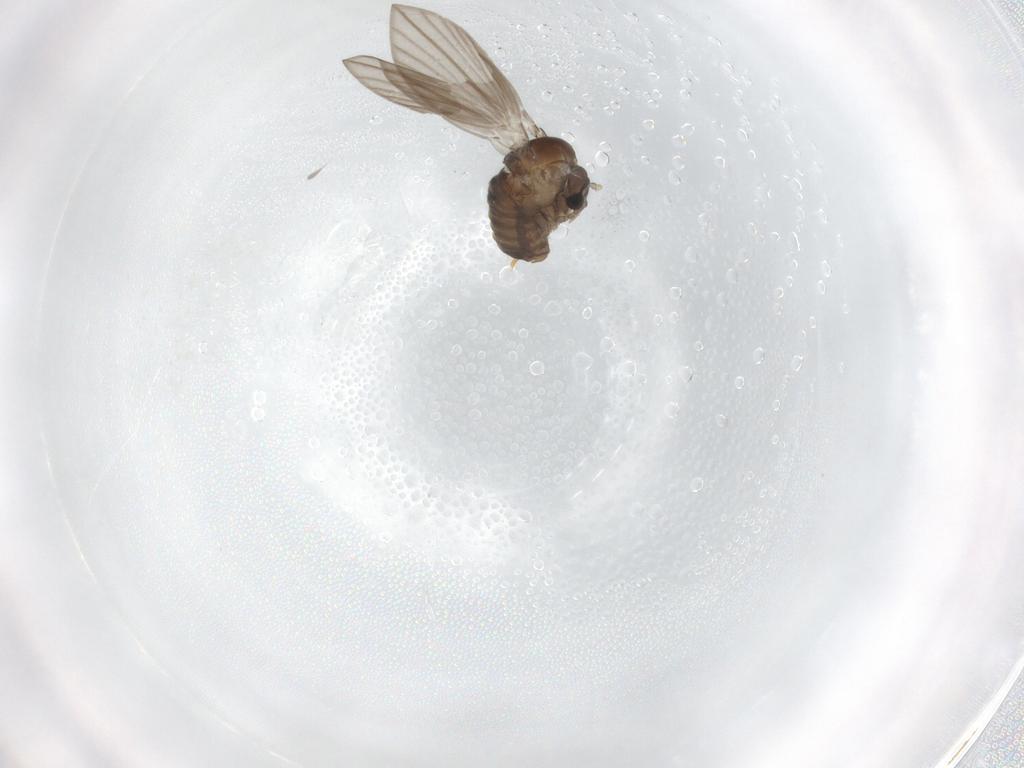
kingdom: Animalia
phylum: Arthropoda
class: Insecta
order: Diptera
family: Psychodidae
